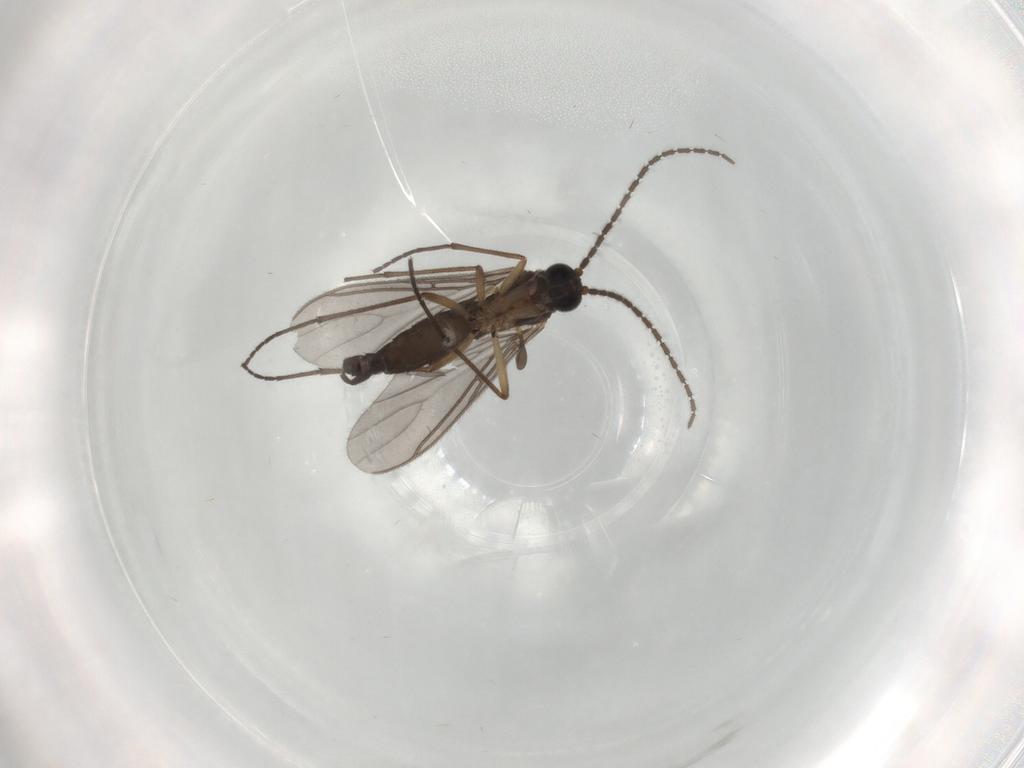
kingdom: Animalia
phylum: Arthropoda
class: Insecta
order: Diptera
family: Sciaridae
